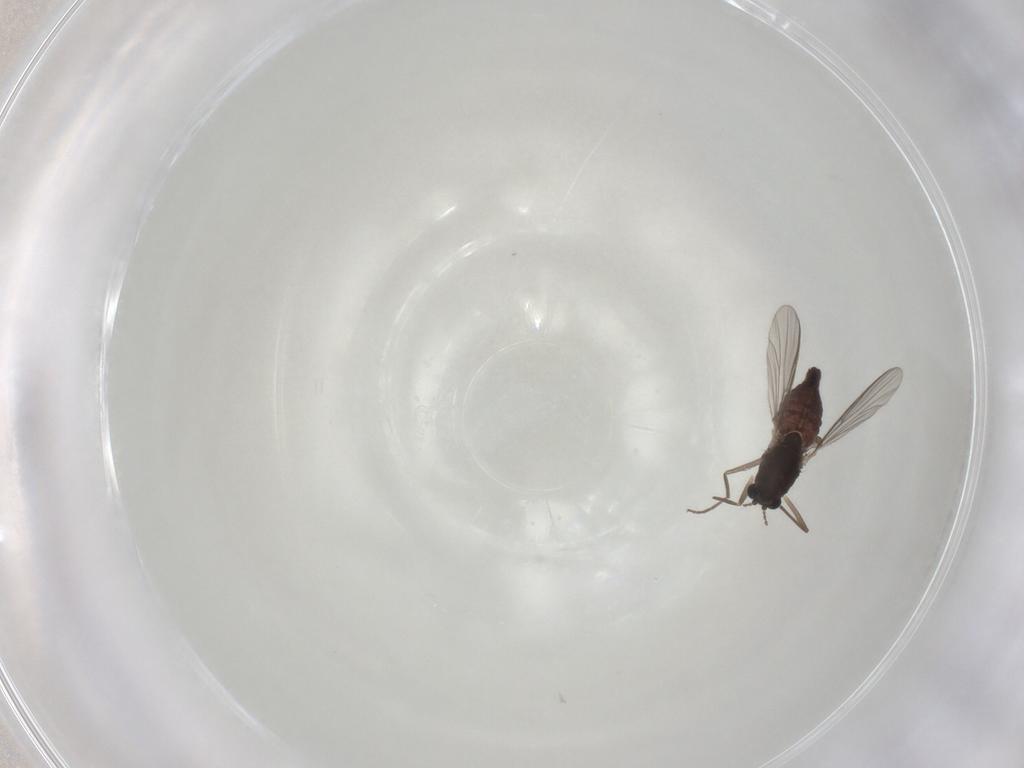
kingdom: Animalia
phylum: Arthropoda
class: Insecta
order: Diptera
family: Chironomidae
